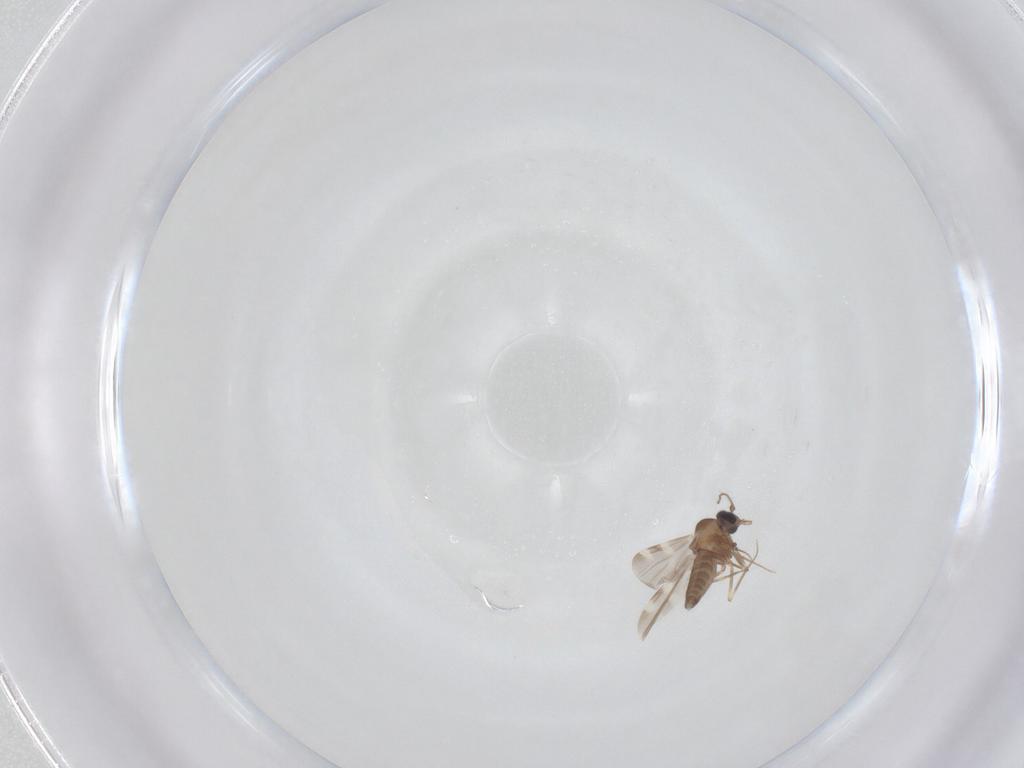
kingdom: Animalia
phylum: Arthropoda
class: Insecta
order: Diptera
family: Ceratopogonidae
